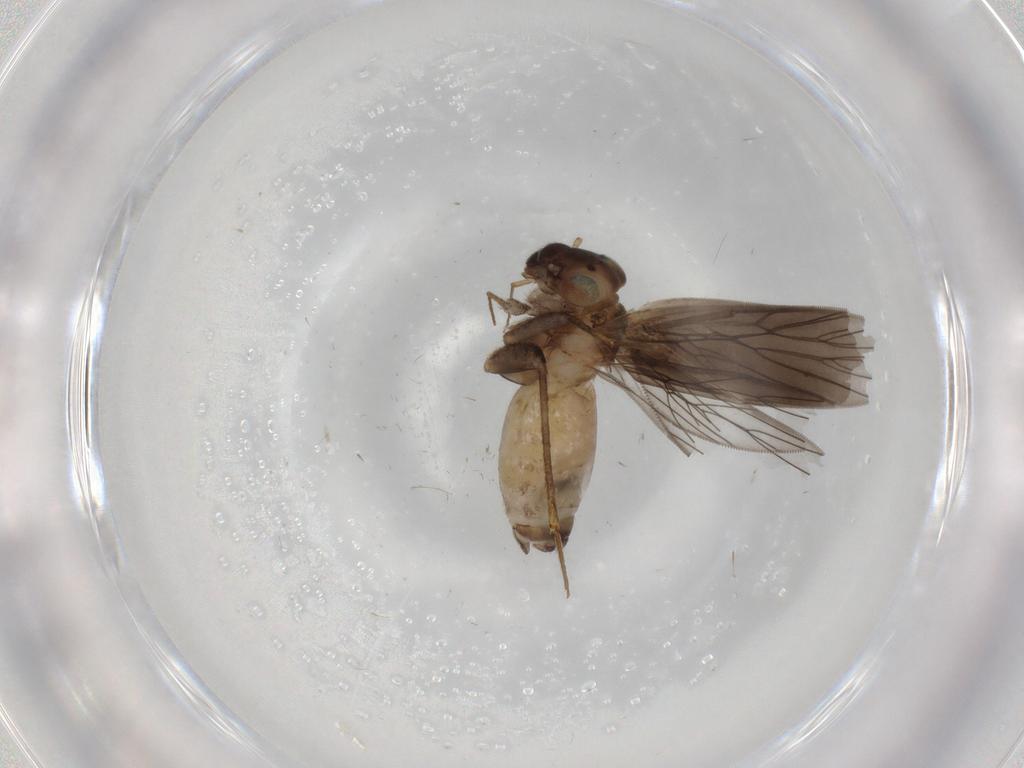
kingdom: Animalia
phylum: Arthropoda
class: Insecta
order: Psocodea
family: Lepidopsocidae
